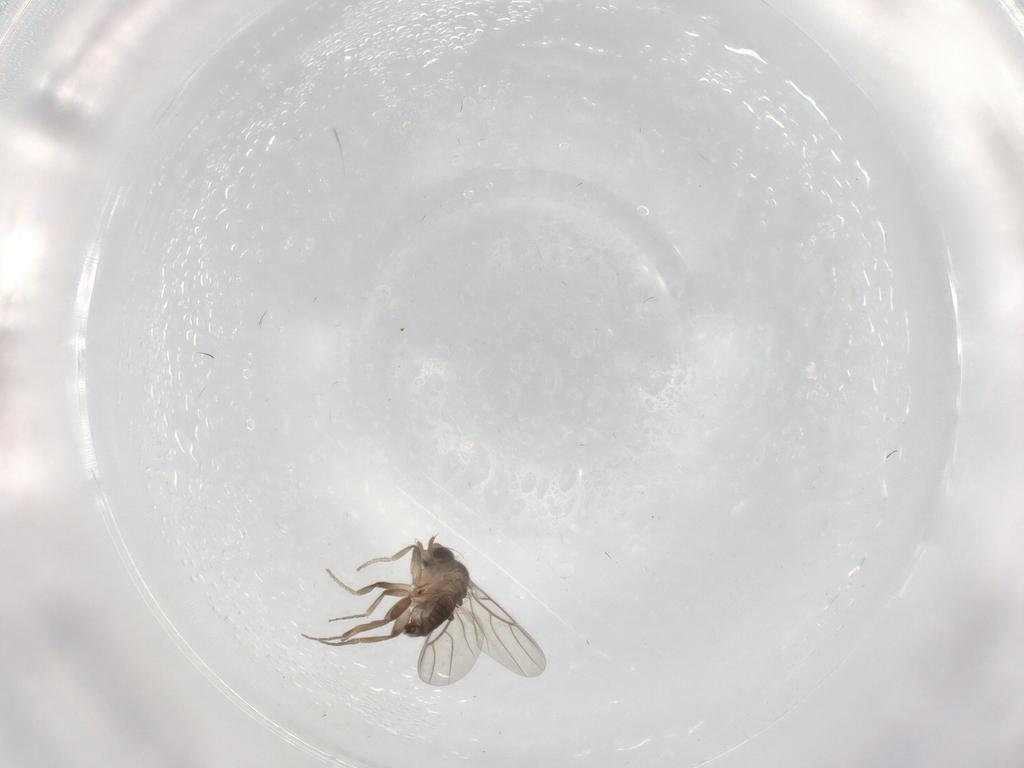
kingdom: Animalia
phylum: Arthropoda
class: Insecta
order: Diptera
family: Phoridae
